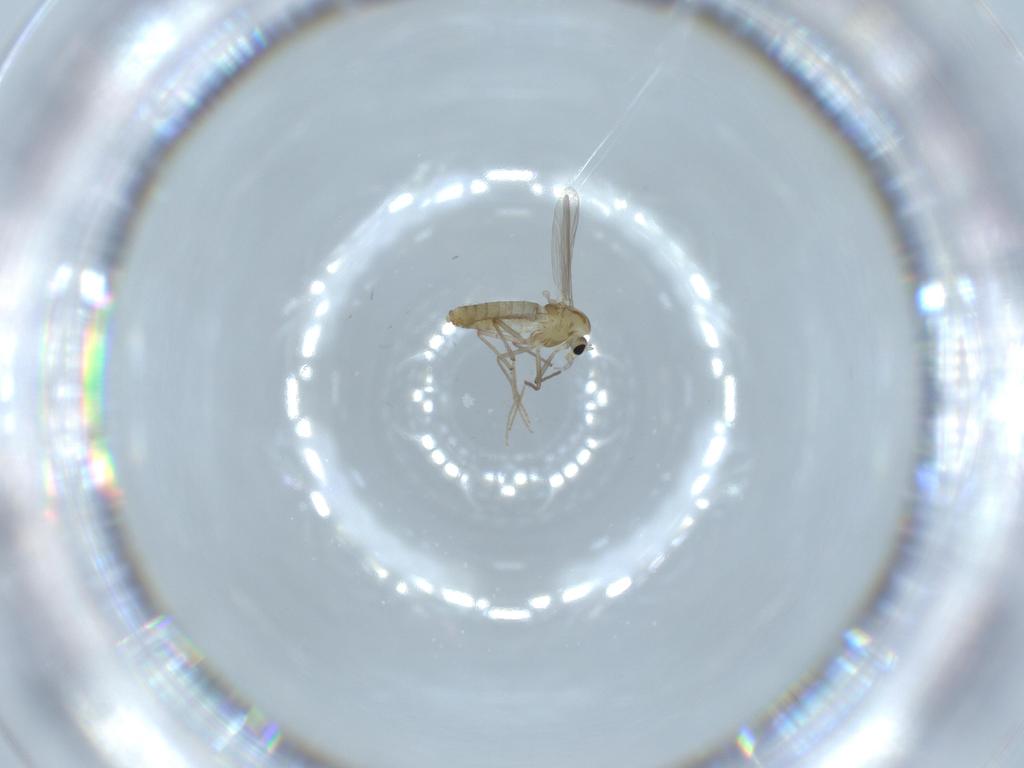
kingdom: Animalia
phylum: Arthropoda
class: Insecta
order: Diptera
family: Chironomidae
